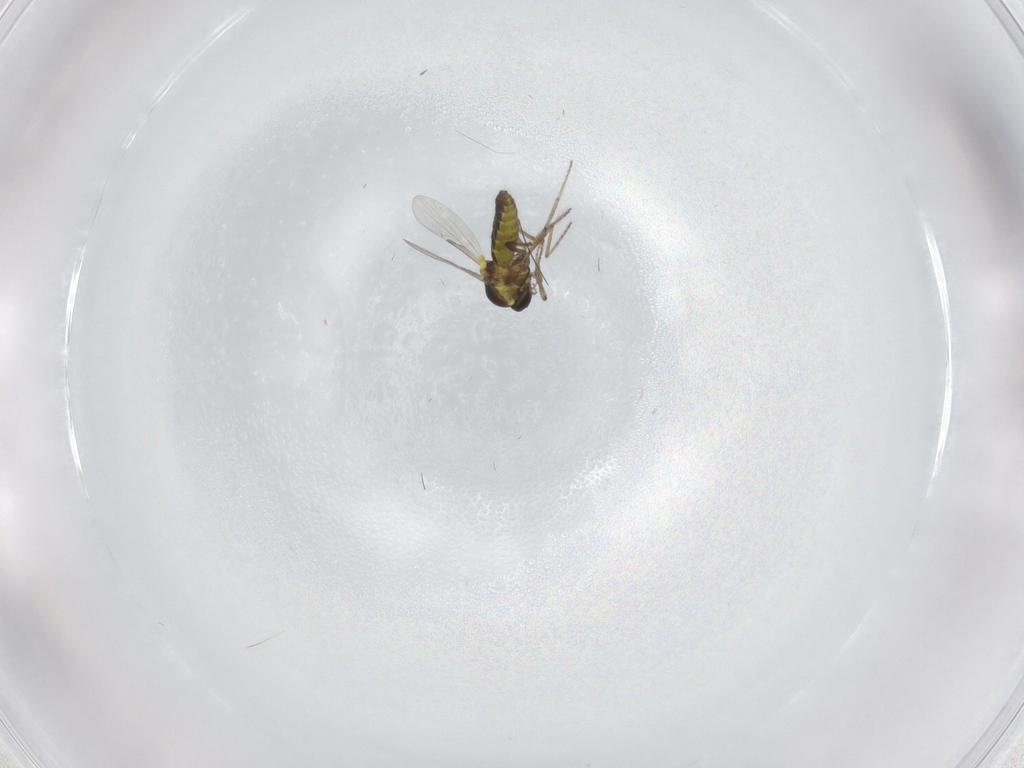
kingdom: Animalia
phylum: Arthropoda
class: Insecta
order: Diptera
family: Ceratopogonidae
